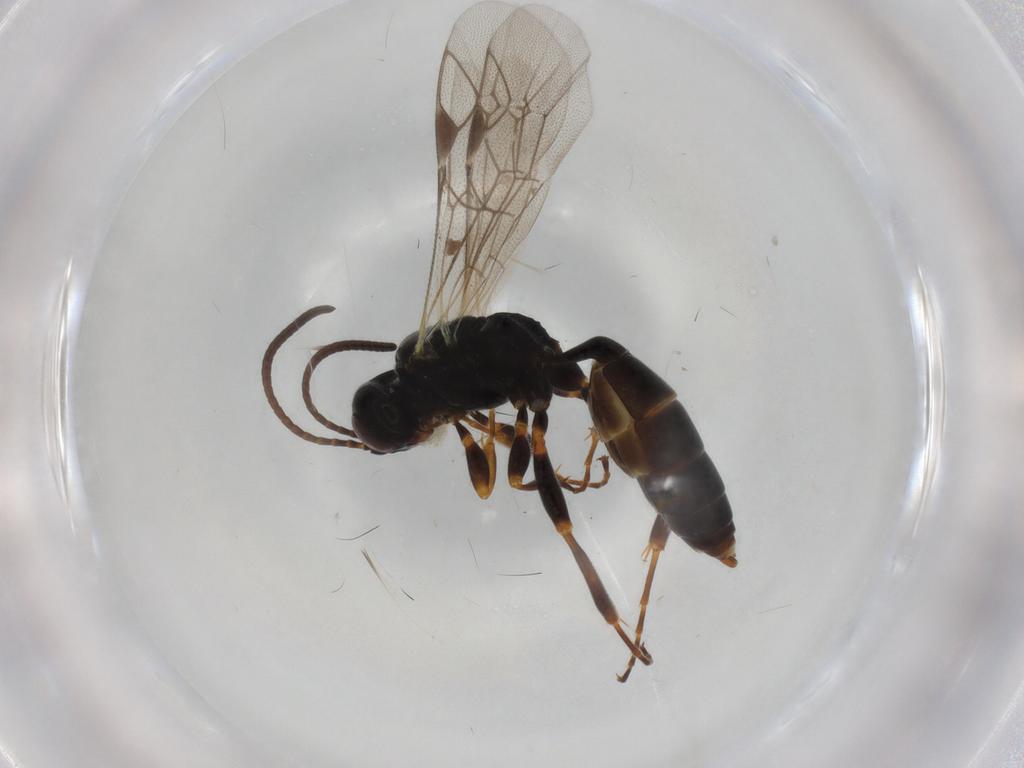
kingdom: Animalia
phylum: Arthropoda
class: Insecta
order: Hymenoptera
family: Ichneumonidae
